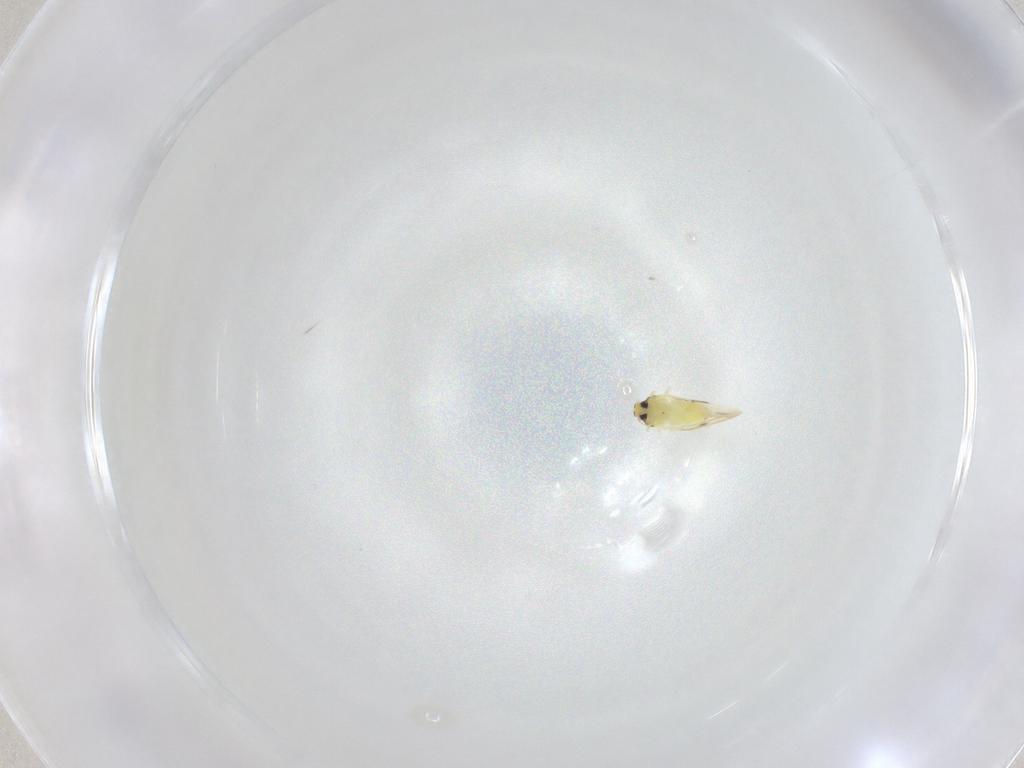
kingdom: Animalia
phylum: Arthropoda
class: Insecta
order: Hemiptera
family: Aleyrodidae
